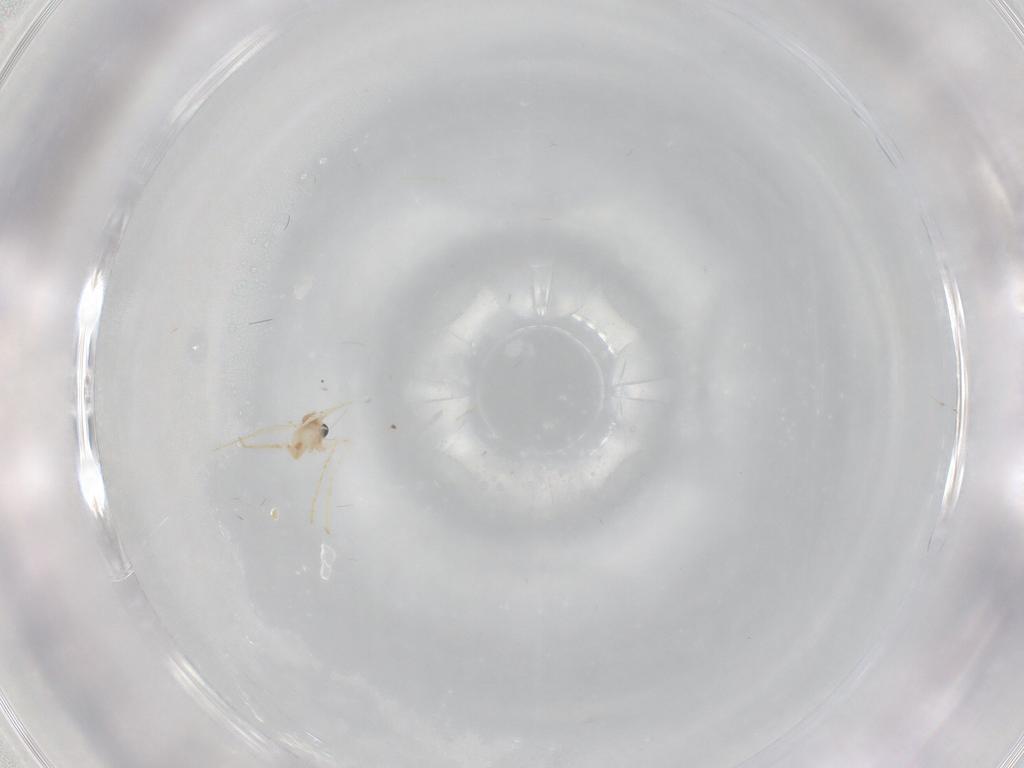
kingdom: Animalia
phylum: Arthropoda
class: Insecta
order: Diptera
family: Cecidomyiidae
